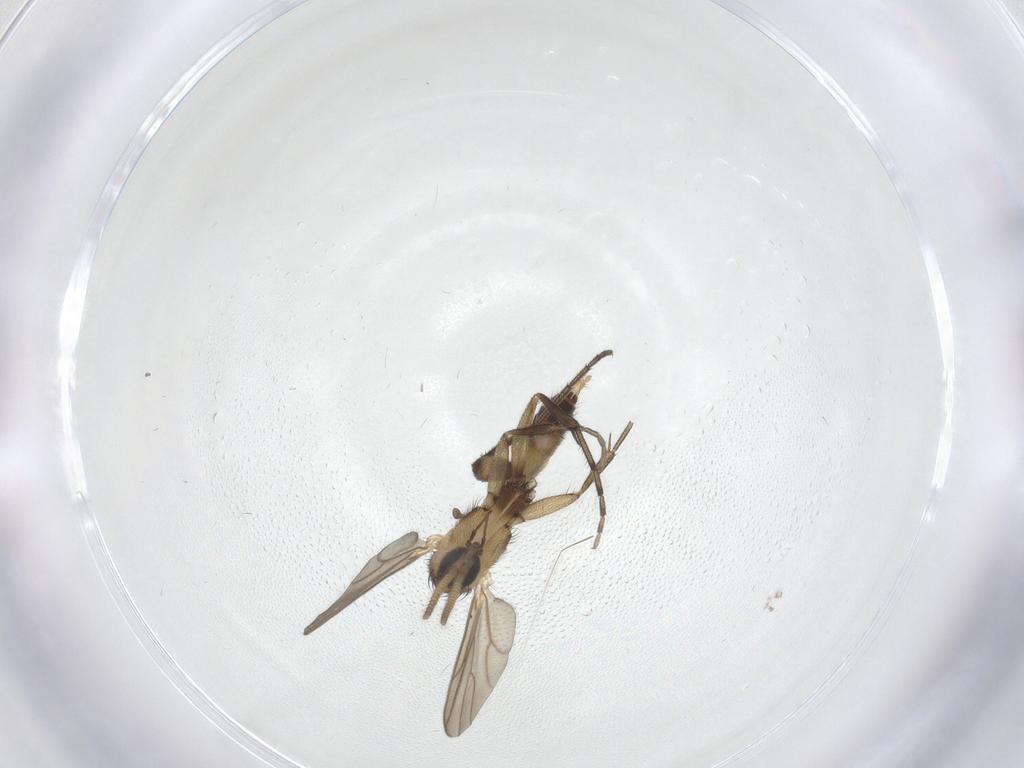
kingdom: Animalia
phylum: Arthropoda
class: Insecta
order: Diptera
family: Mycetophilidae
